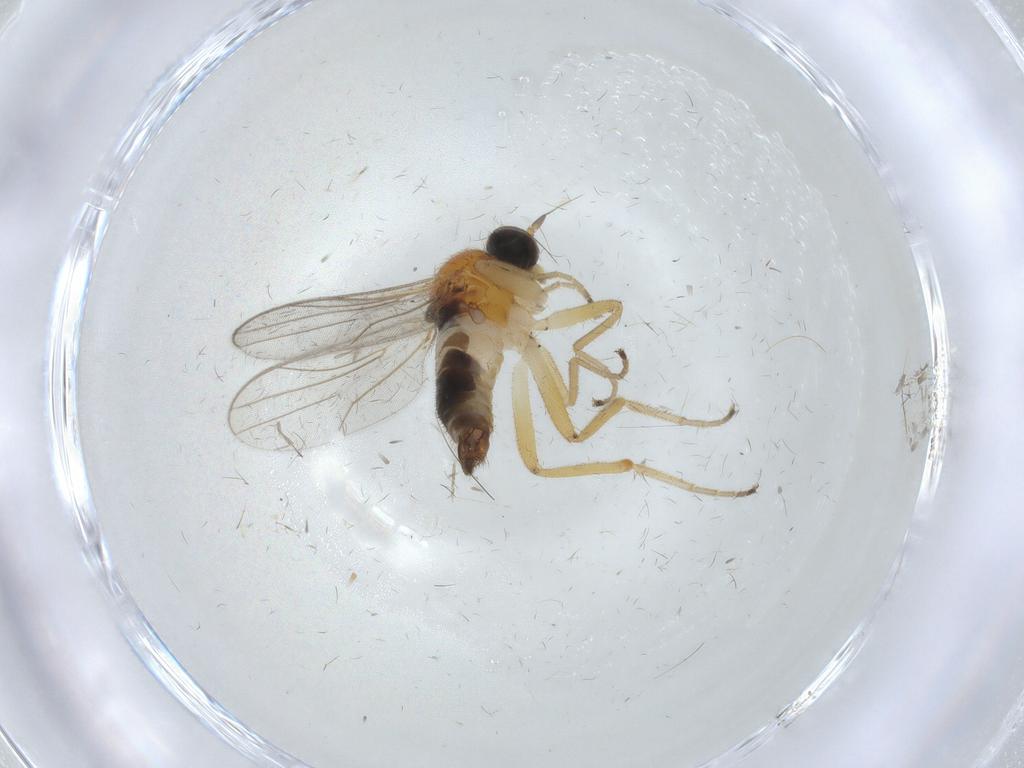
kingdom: Animalia
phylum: Arthropoda
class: Insecta
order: Diptera
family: Hybotidae
